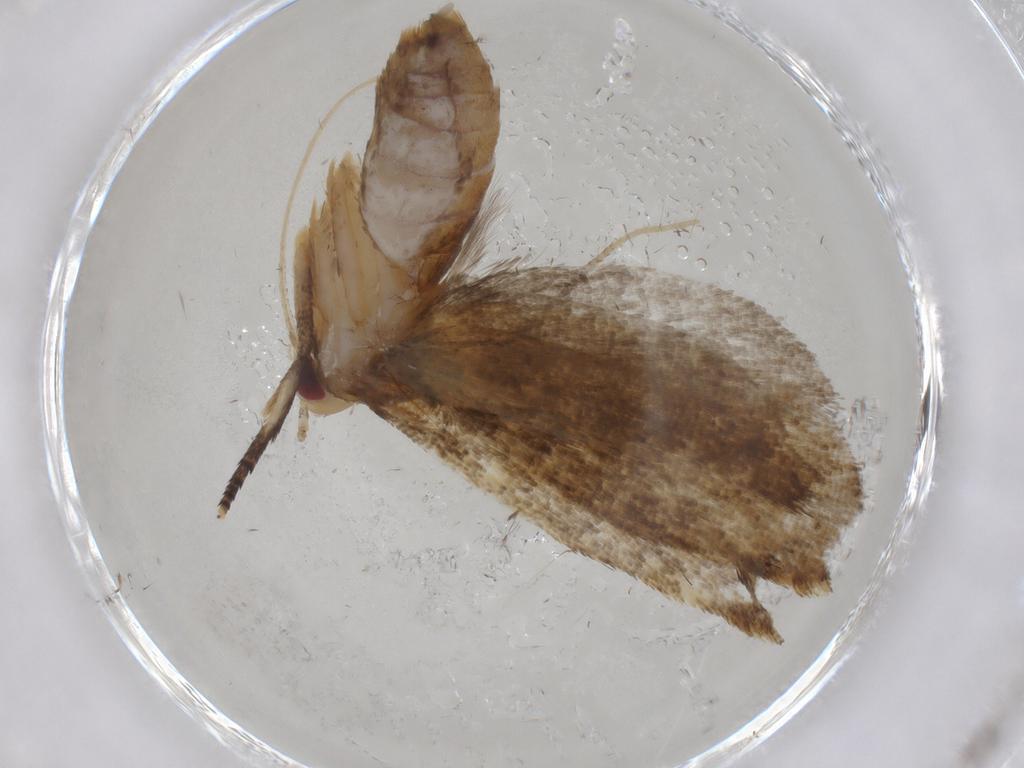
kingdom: Animalia
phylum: Arthropoda
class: Insecta
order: Lepidoptera
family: Oecophoridae
